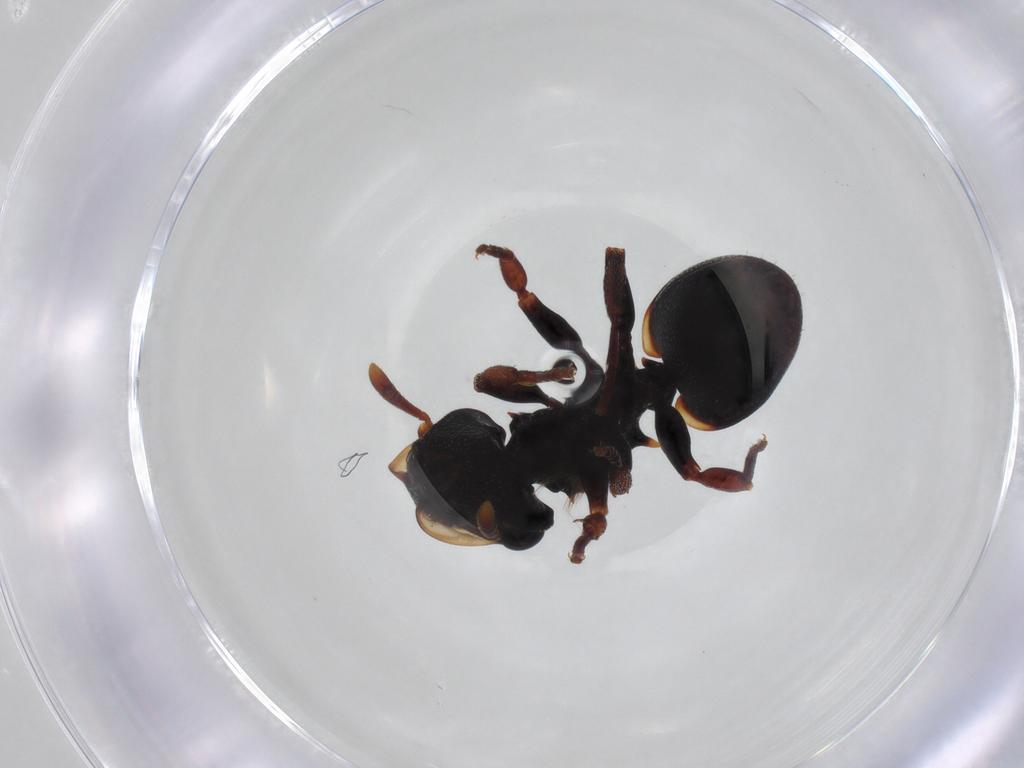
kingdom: Animalia
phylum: Arthropoda
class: Insecta
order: Hymenoptera
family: Formicidae
